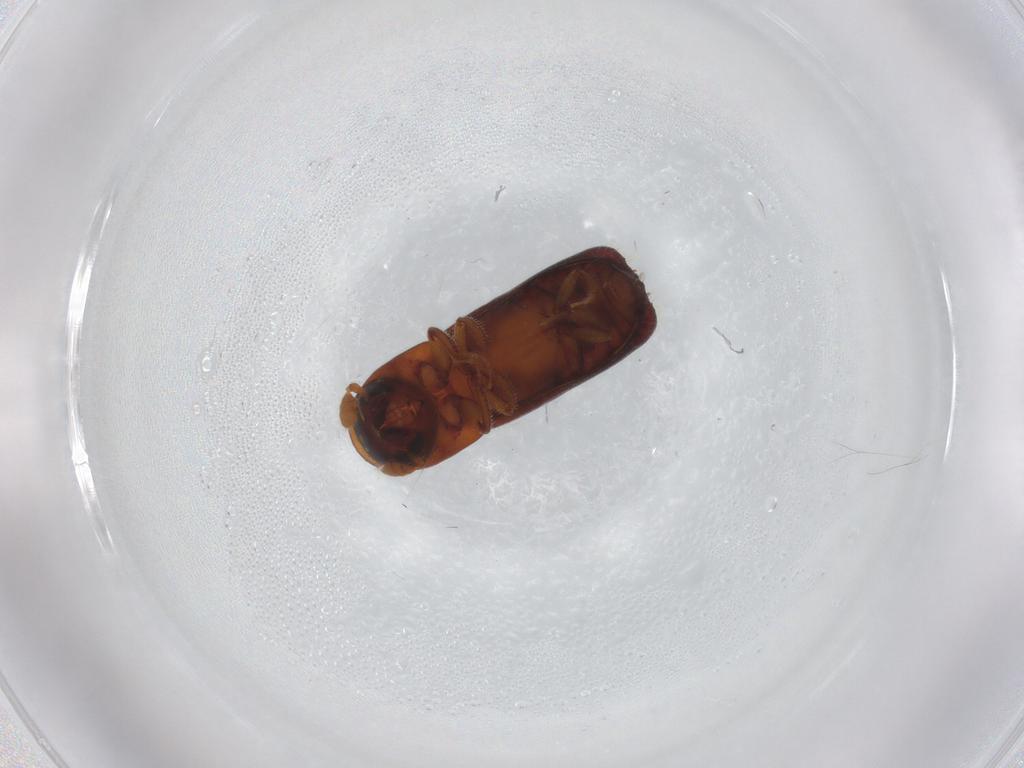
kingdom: Animalia
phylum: Arthropoda
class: Insecta
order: Coleoptera
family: Curculionidae
